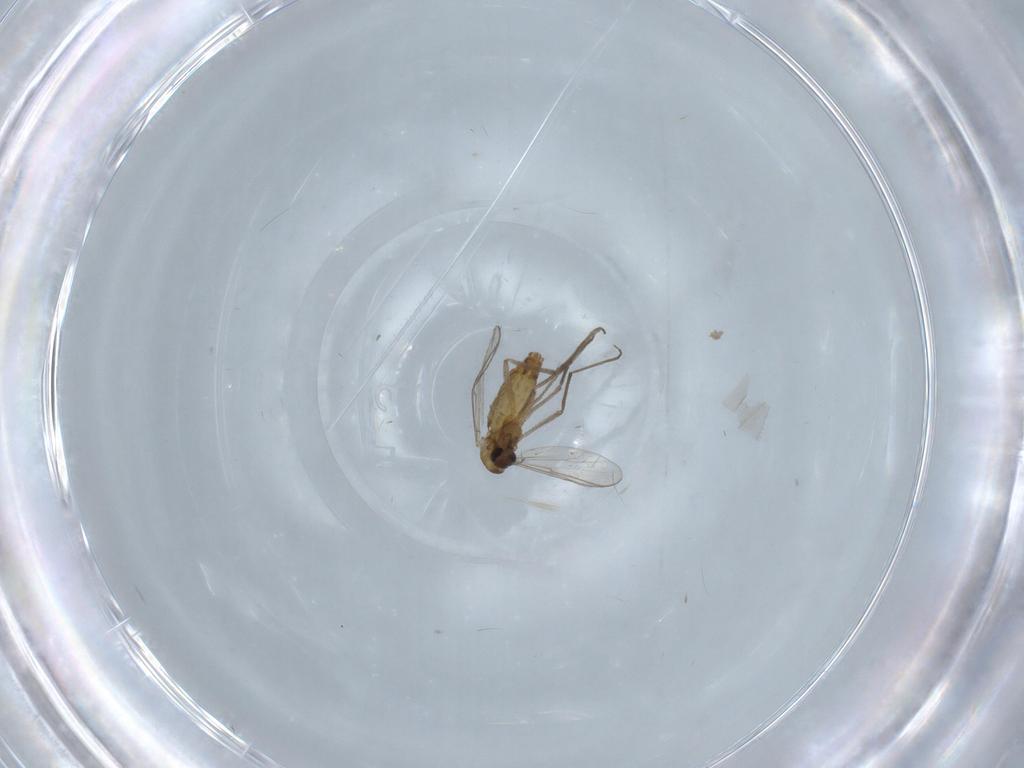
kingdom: Animalia
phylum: Arthropoda
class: Insecta
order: Diptera
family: Chironomidae
